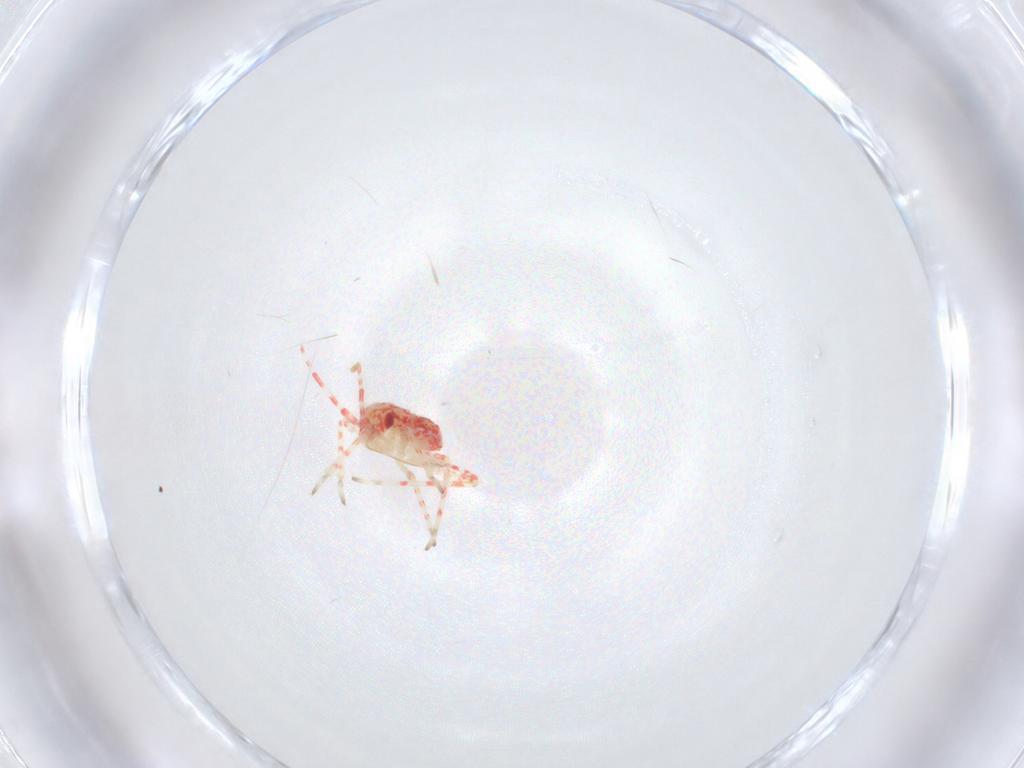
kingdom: Animalia
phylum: Arthropoda
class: Insecta
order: Hemiptera
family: Miridae
